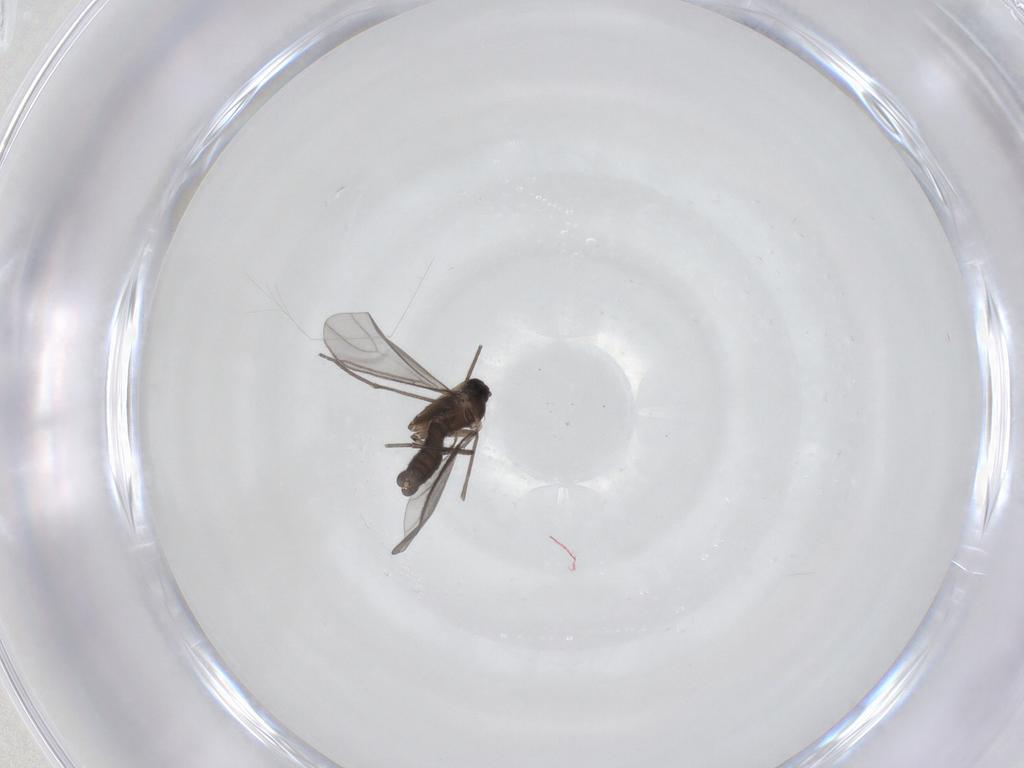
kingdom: Animalia
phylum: Arthropoda
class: Insecta
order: Diptera
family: Sciaridae
